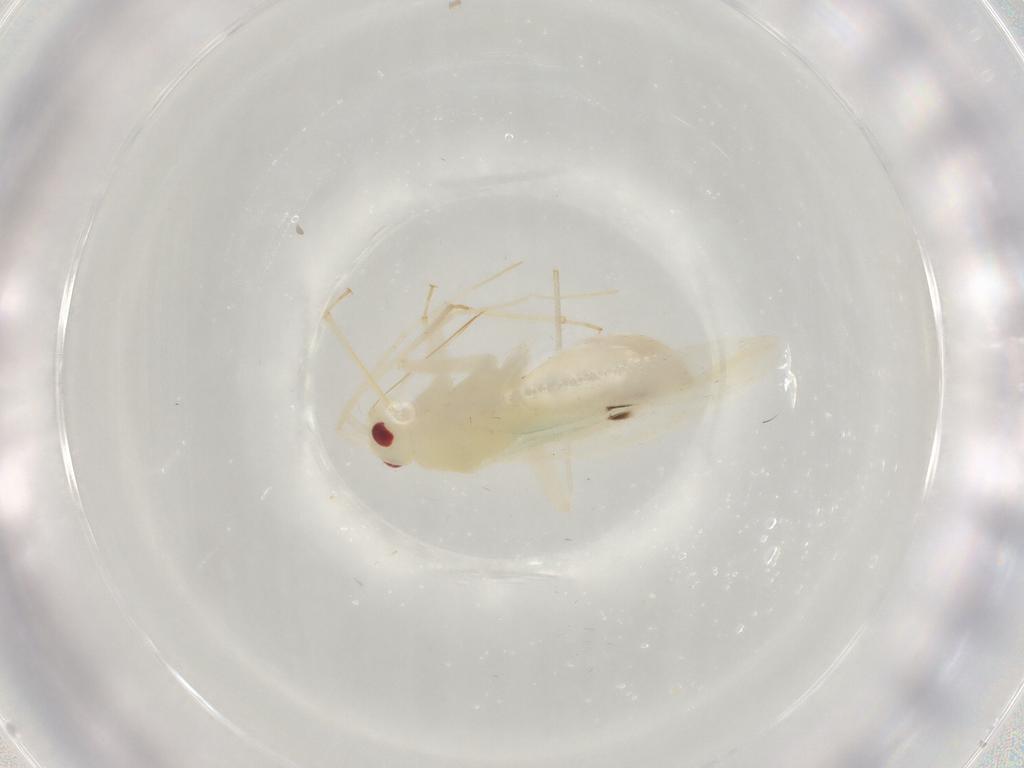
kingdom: Animalia
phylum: Arthropoda
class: Insecta
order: Hemiptera
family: Miridae
